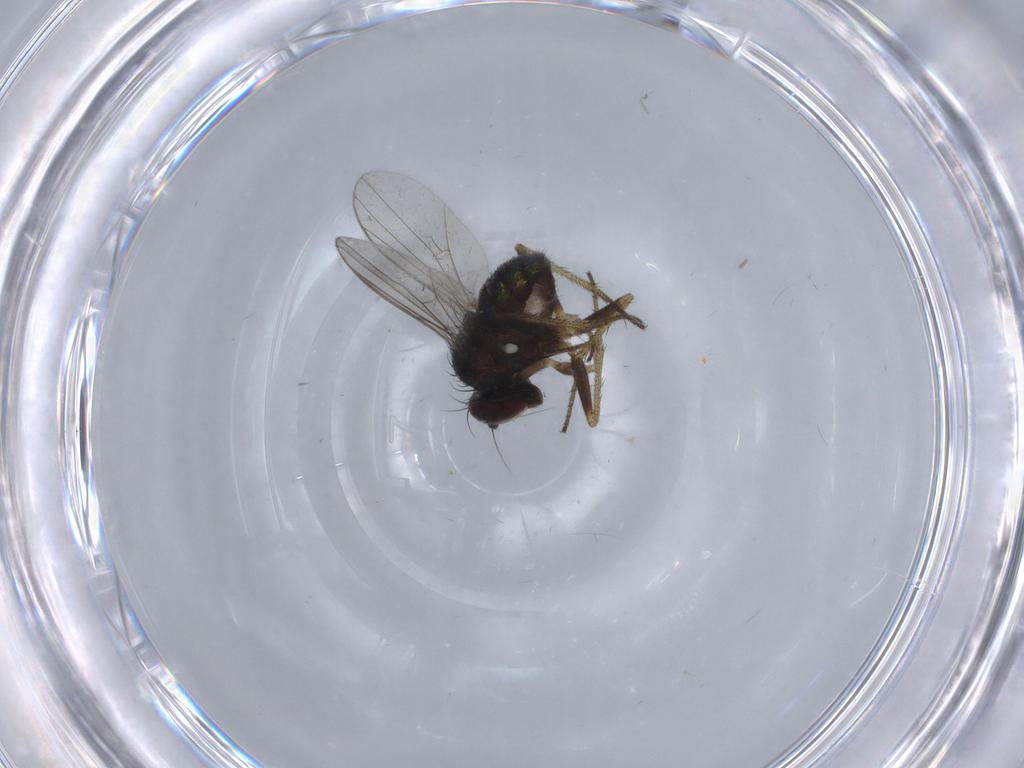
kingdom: Animalia
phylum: Arthropoda
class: Insecta
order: Diptera
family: Dolichopodidae
